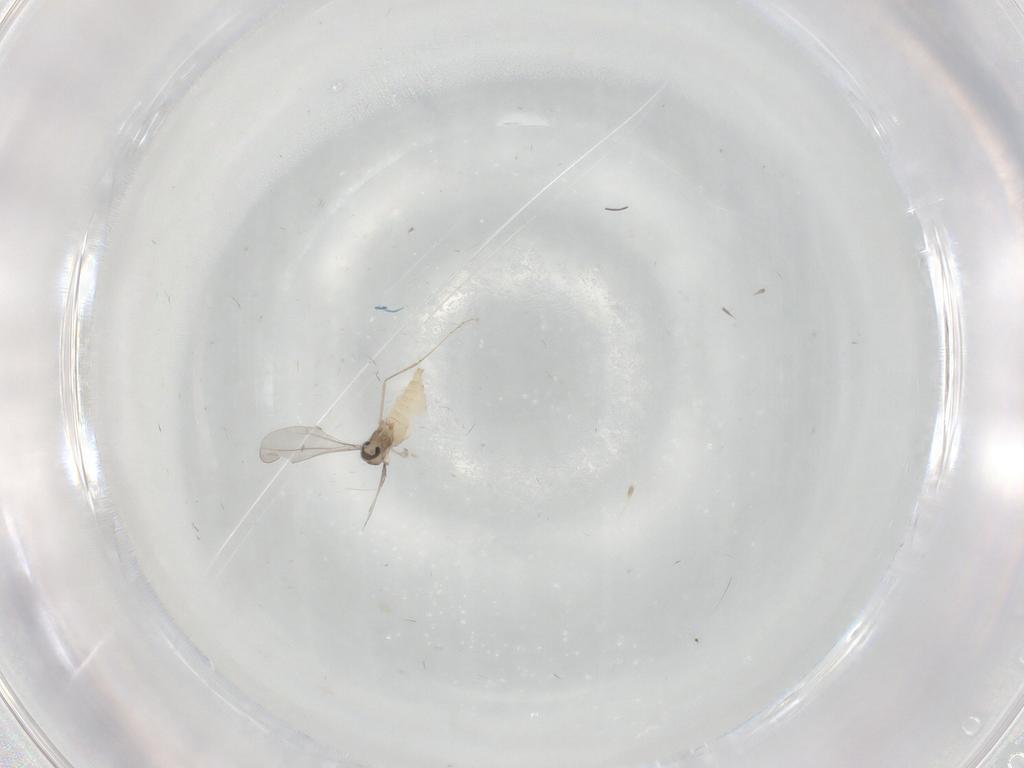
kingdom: Animalia
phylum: Arthropoda
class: Insecta
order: Diptera
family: Cecidomyiidae
